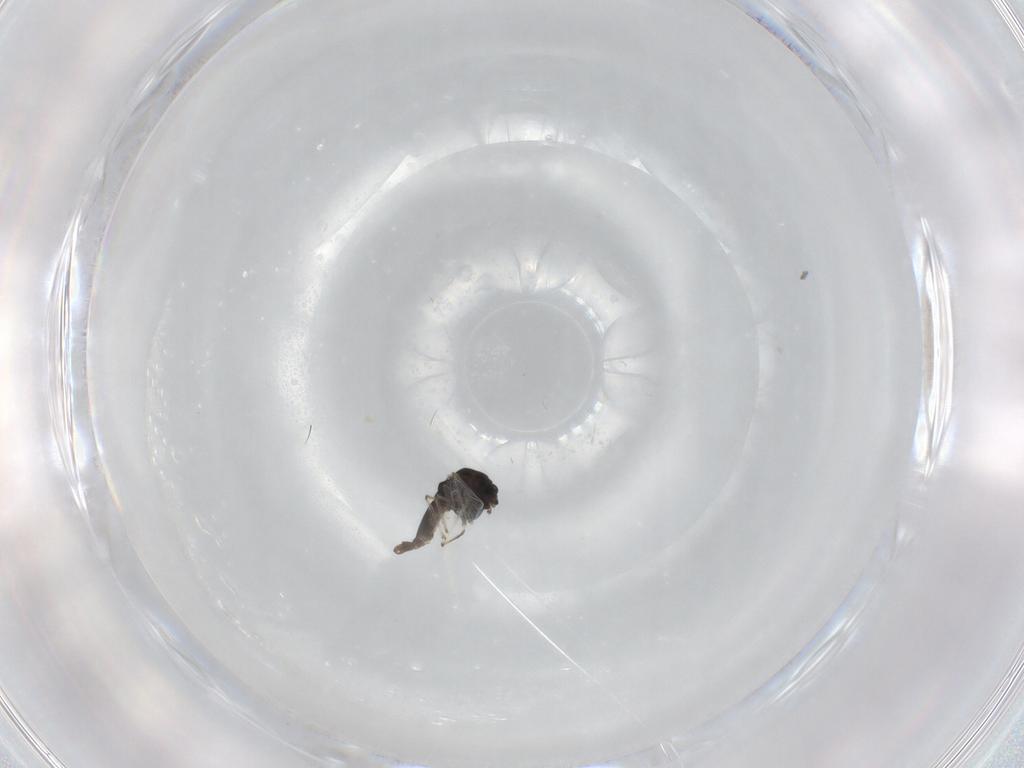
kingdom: Animalia
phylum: Arthropoda
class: Insecta
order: Diptera
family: Chironomidae
